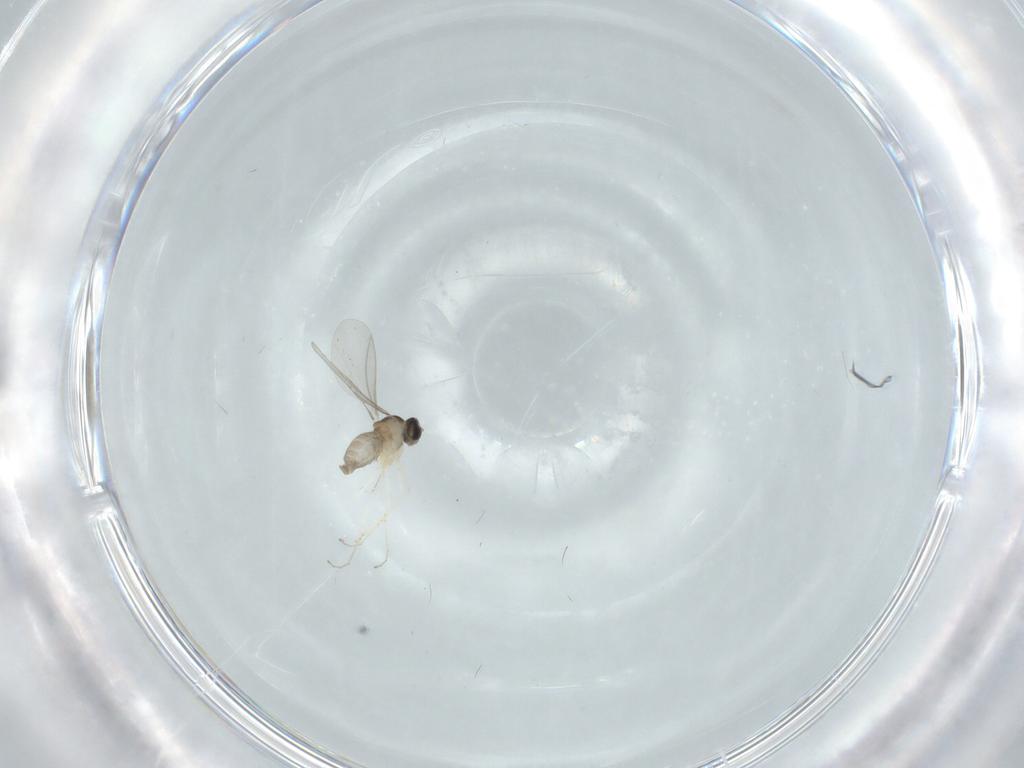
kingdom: Animalia
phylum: Arthropoda
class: Insecta
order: Diptera
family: Cecidomyiidae
